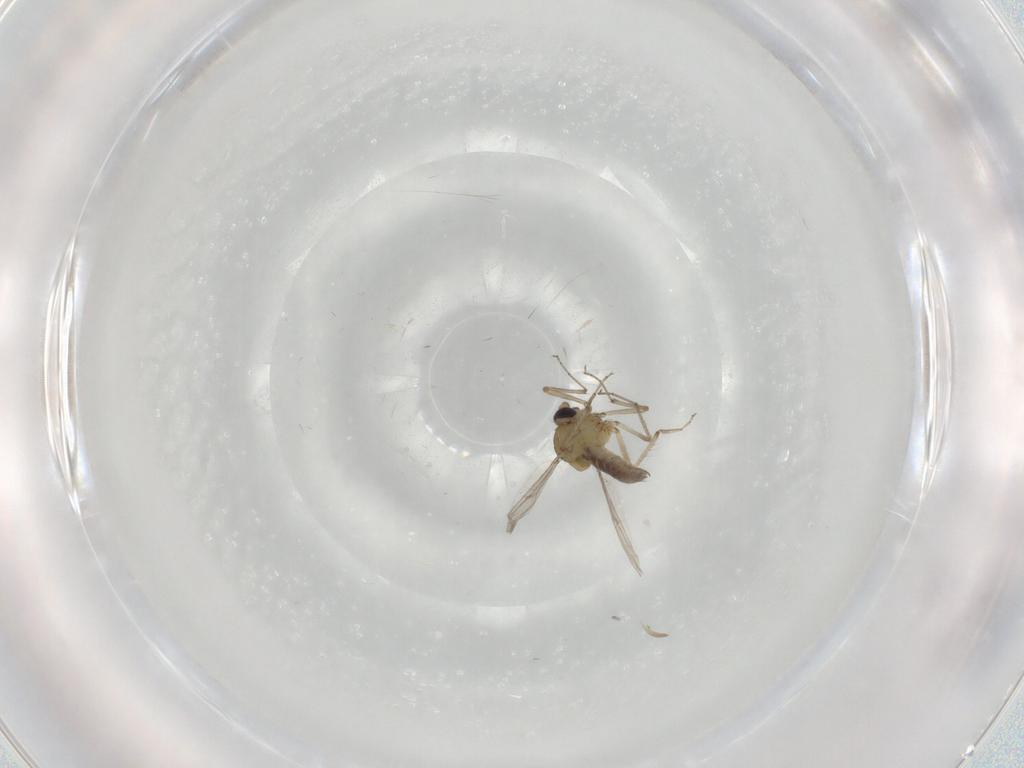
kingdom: Animalia
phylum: Arthropoda
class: Insecta
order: Diptera
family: Ceratopogonidae
